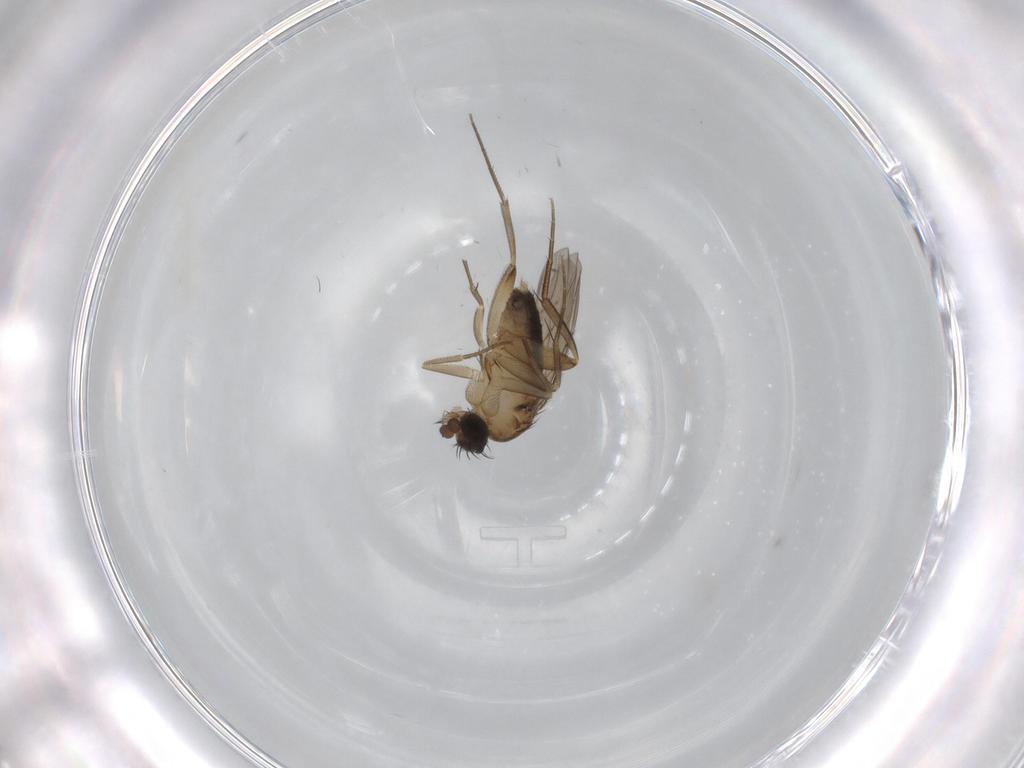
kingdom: Animalia
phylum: Arthropoda
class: Insecta
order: Diptera
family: Phoridae
